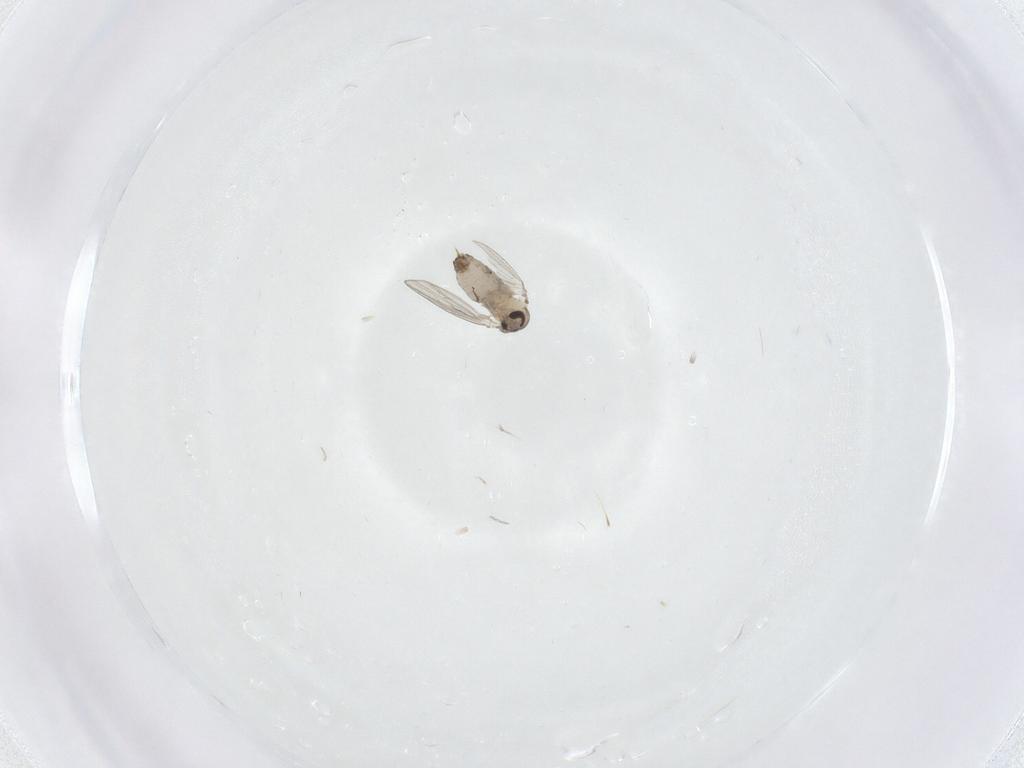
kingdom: Animalia
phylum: Arthropoda
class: Insecta
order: Diptera
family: Psychodidae
